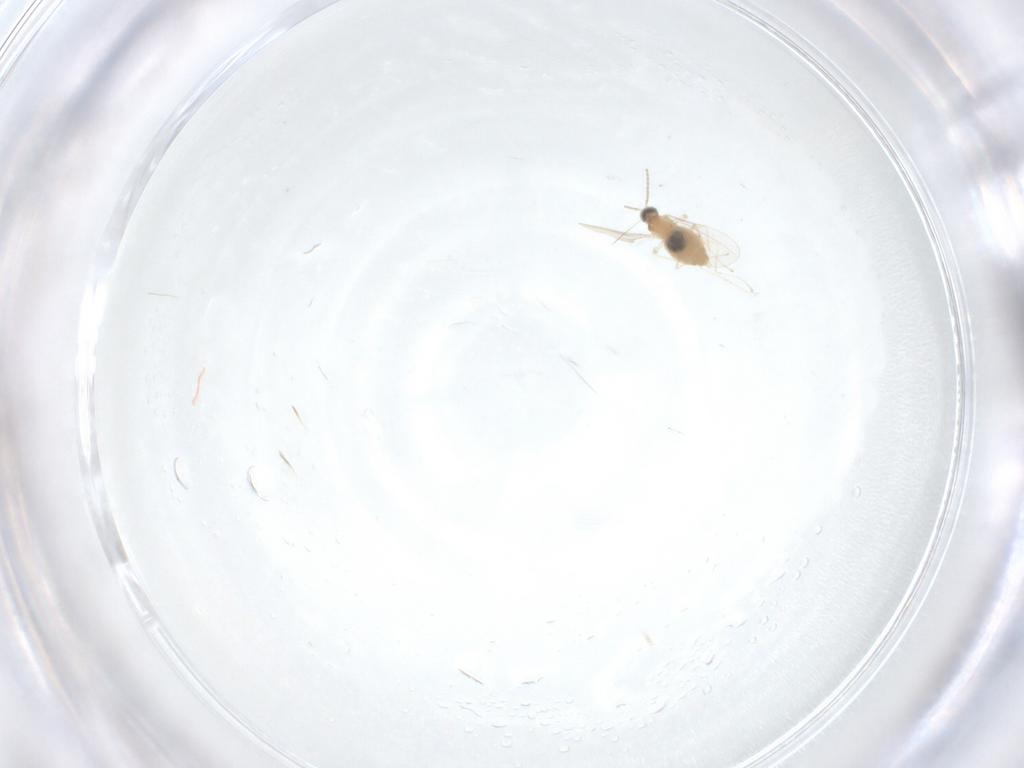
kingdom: Animalia
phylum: Arthropoda
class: Insecta
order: Diptera
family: Cecidomyiidae
